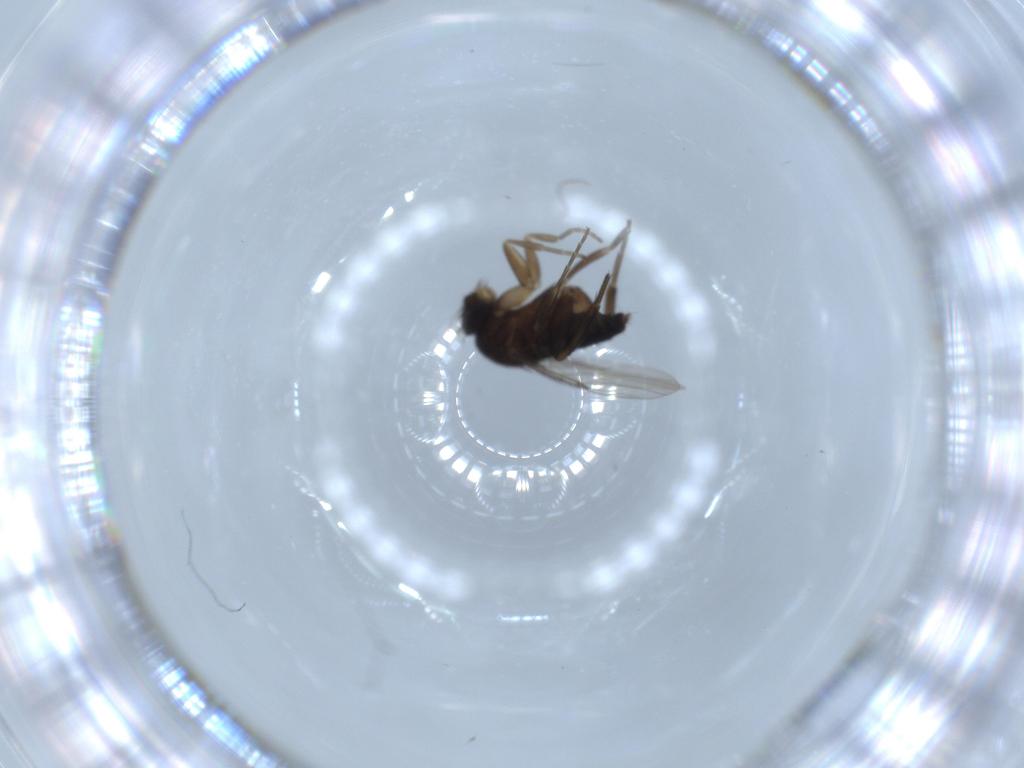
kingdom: Animalia
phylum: Arthropoda
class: Insecta
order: Diptera
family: Phoridae
